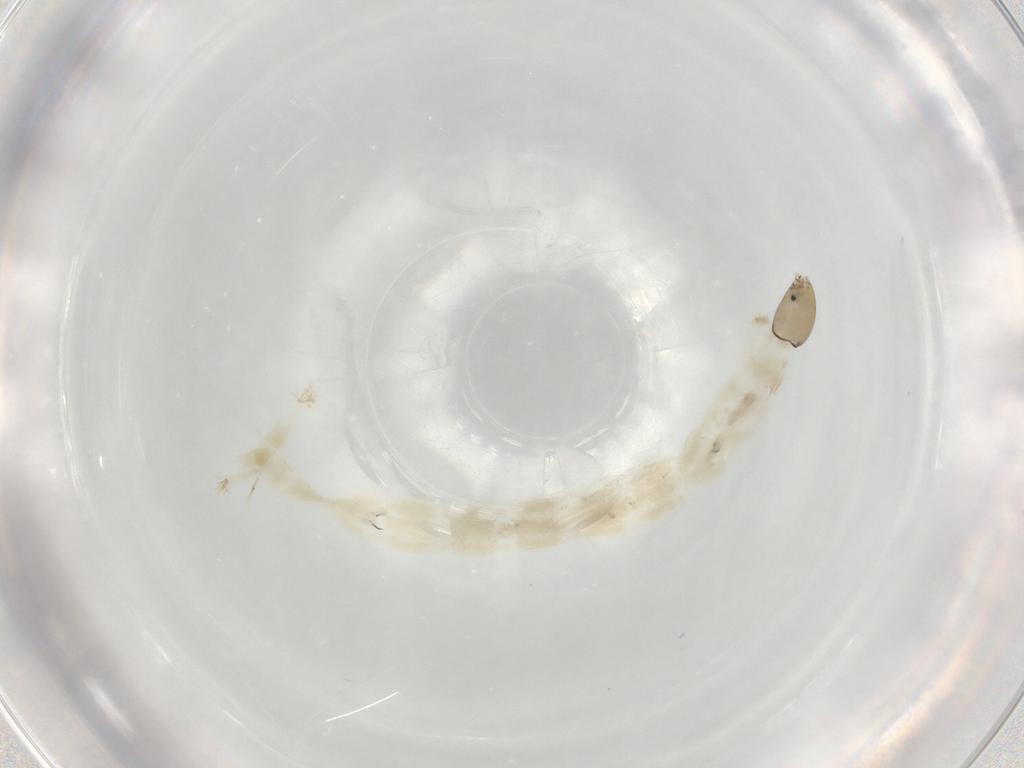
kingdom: Animalia
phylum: Arthropoda
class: Insecta
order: Diptera
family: Chironomidae
